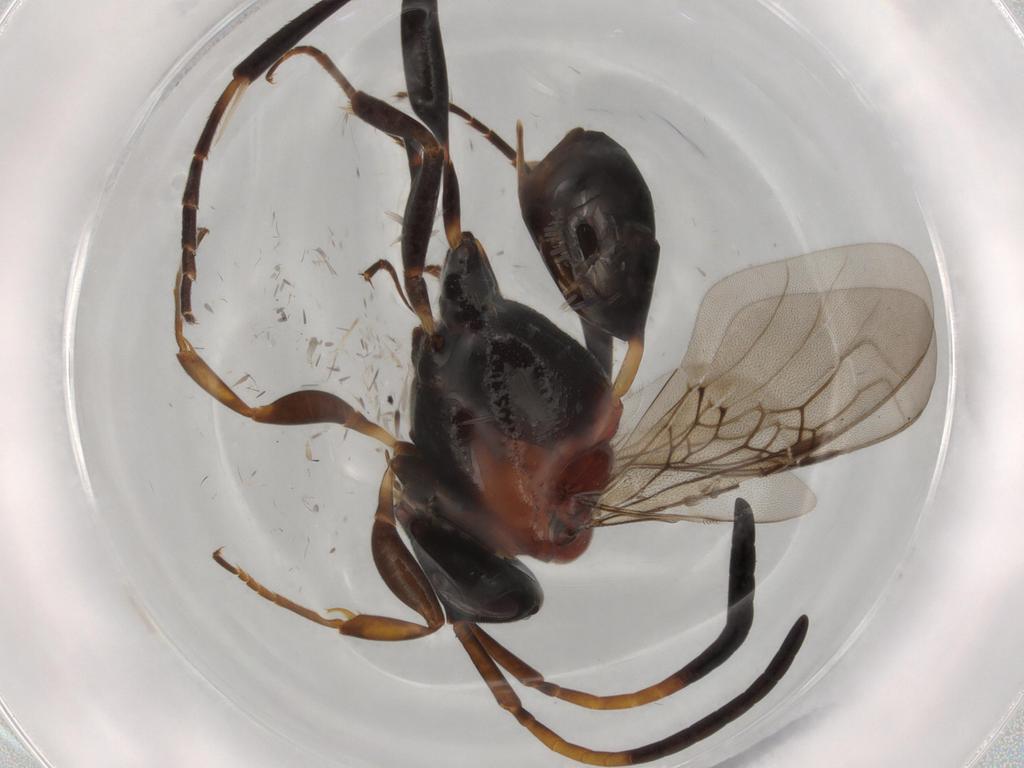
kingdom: Animalia
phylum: Arthropoda
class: Insecta
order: Hymenoptera
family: Evaniidae
